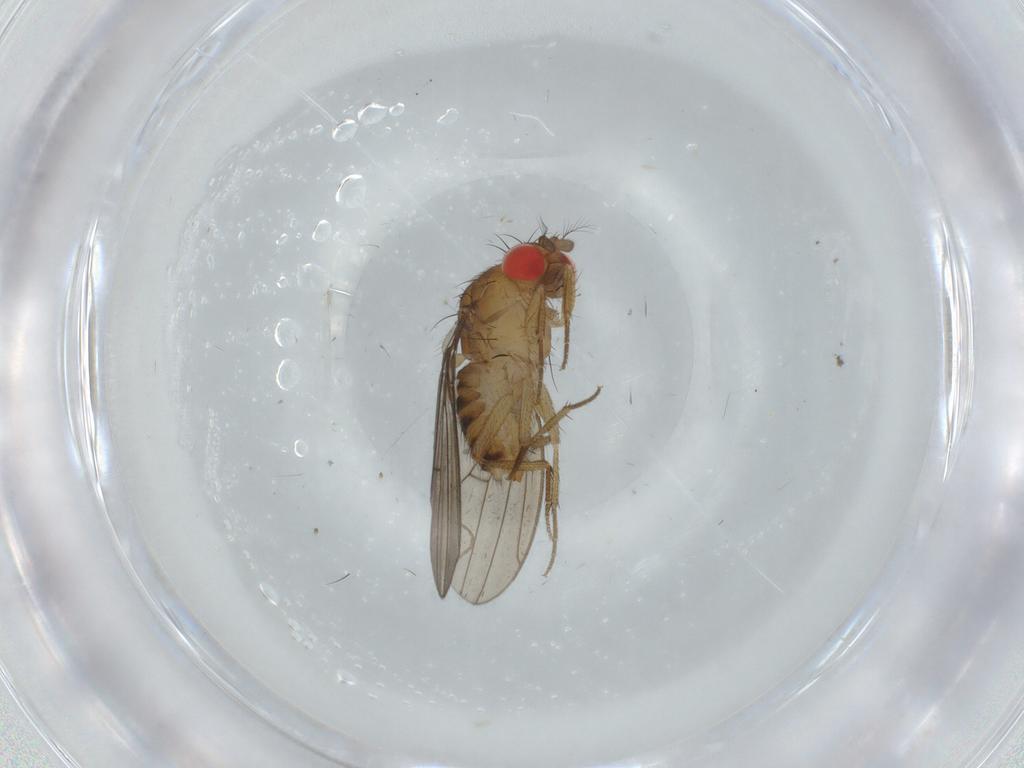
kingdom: Animalia
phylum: Arthropoda
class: Insecta
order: Diptera
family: Drosophilidae
